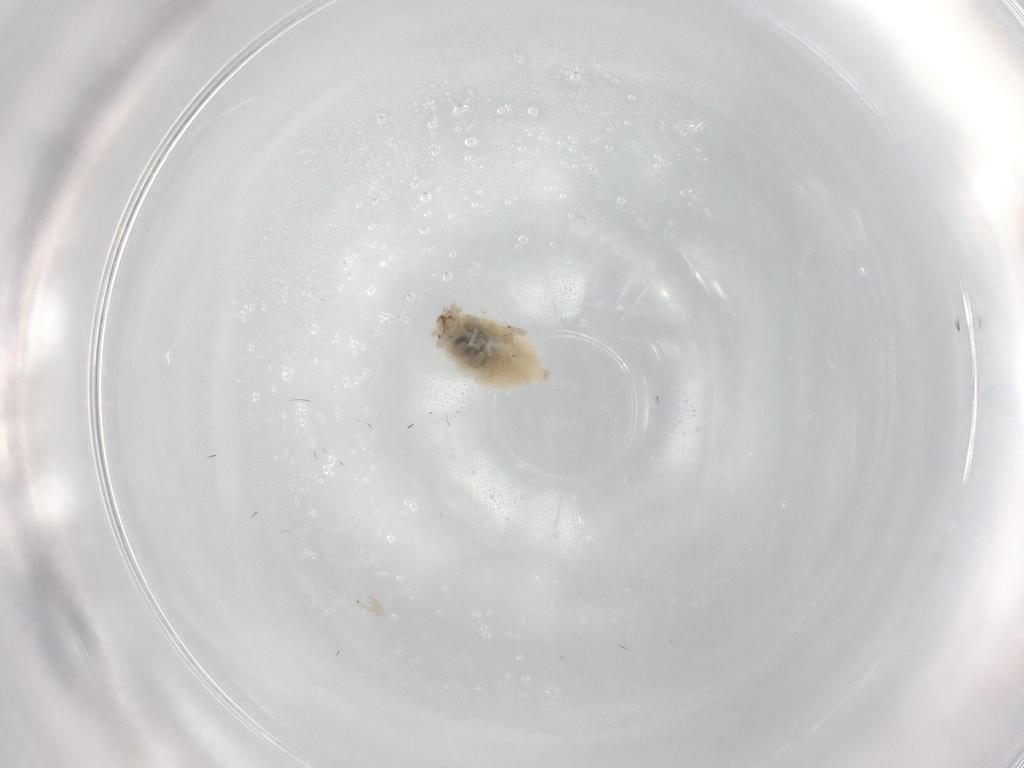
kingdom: Animalia
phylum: Arthropoda
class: Insecta
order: Neuroptera
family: Coniopterygidae
